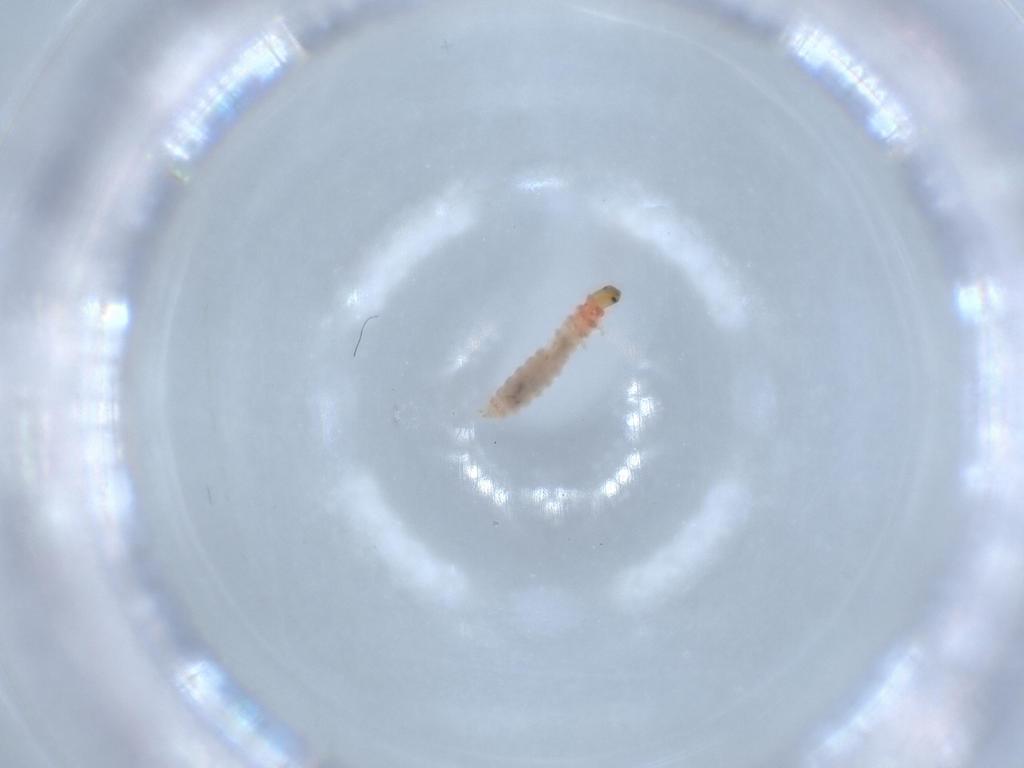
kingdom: Animalia
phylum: Arthropoda
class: Insecta
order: Coleoptera
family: Melyridae
